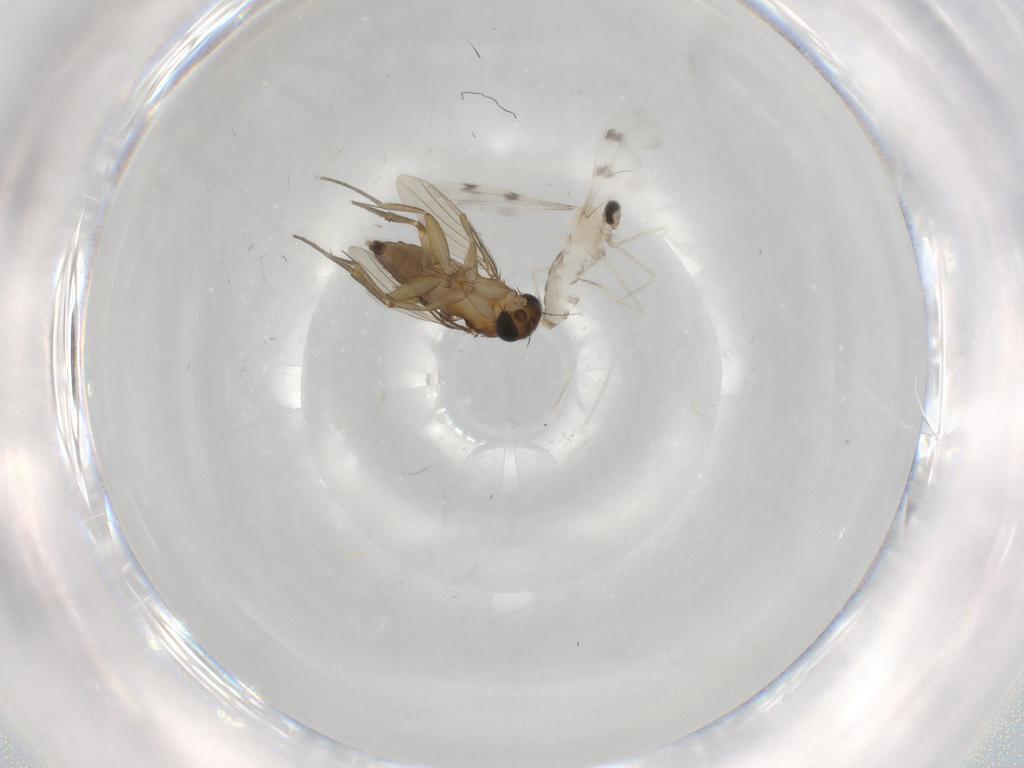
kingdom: Animalia
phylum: Arthropoda
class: Insecta
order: Diptera
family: Phoridae
